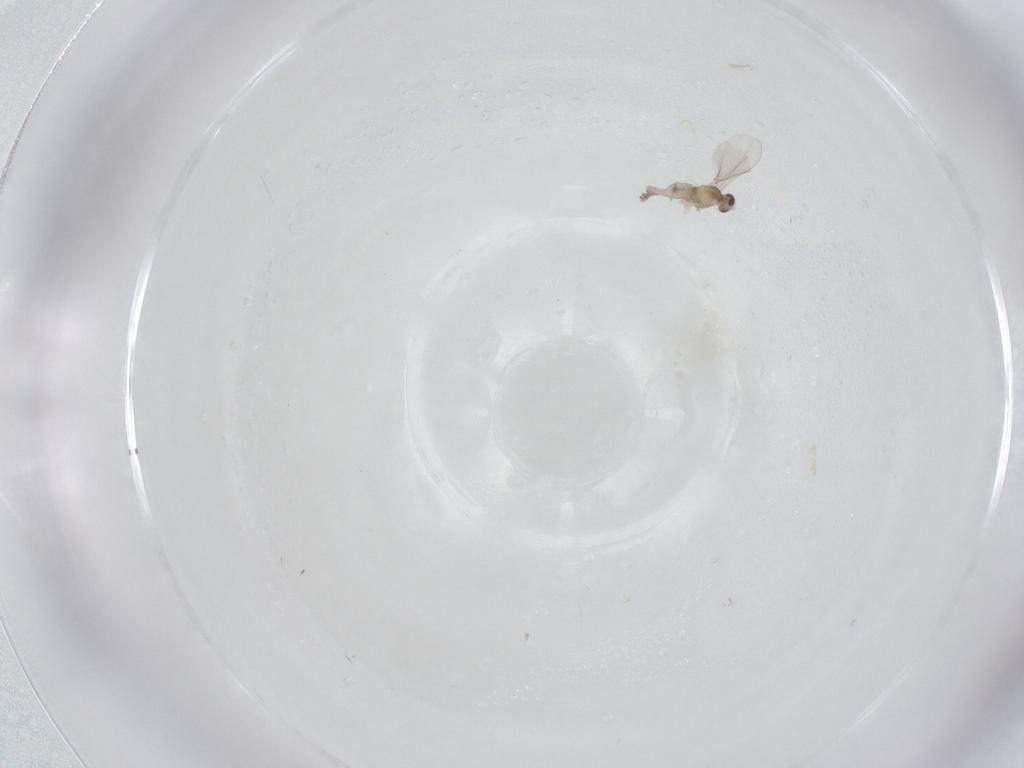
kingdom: Animalia
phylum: Arthropoda
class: Insecta
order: Diptera
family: Cecidomyiidae
